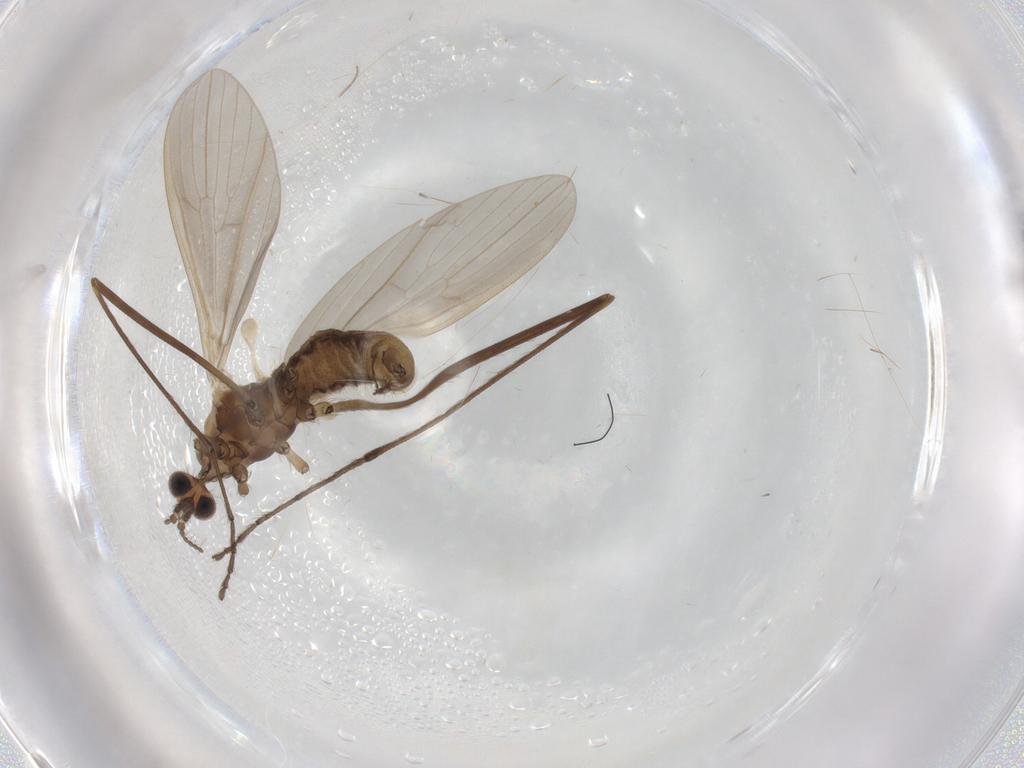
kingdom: Animalia
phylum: Arthropoda
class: Insecta
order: Diptera
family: Limoniidae
